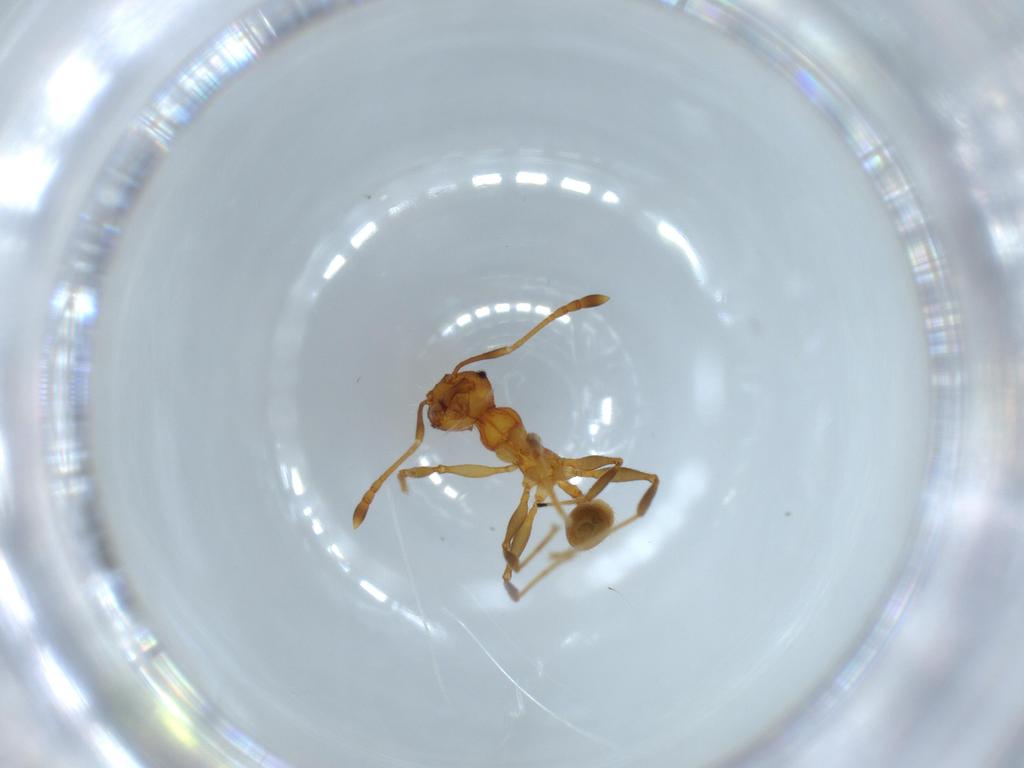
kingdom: Animalia
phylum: Arthropoda
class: Insecta
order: Hymenoptera
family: Formicidae
